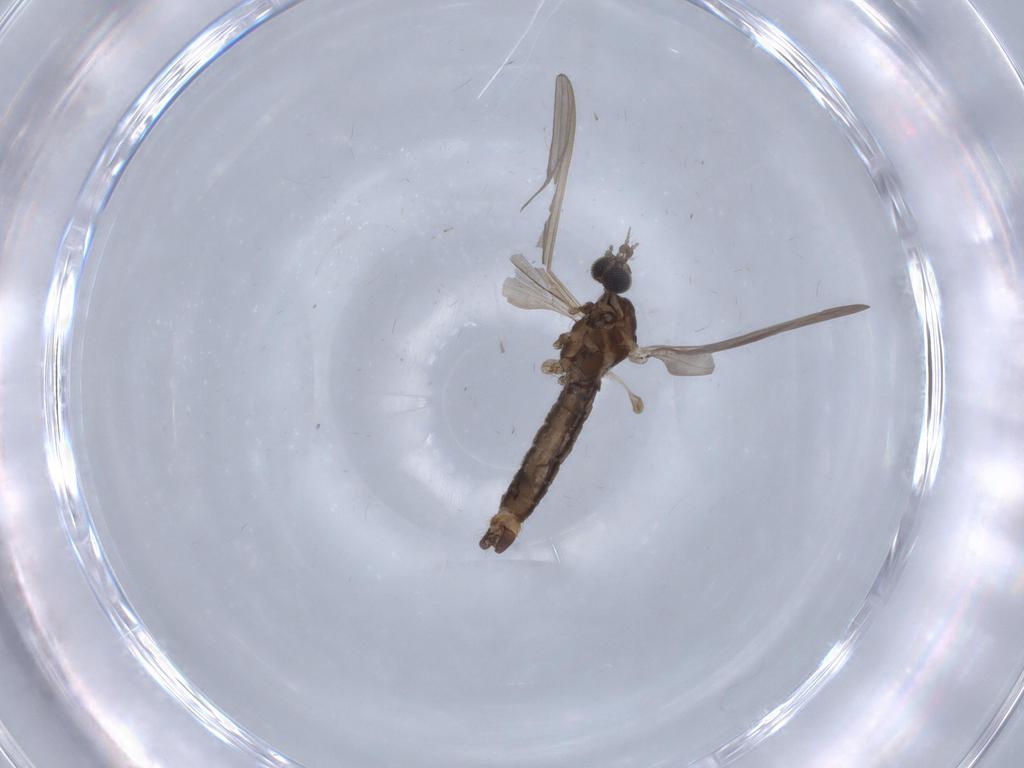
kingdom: Animalia
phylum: Arthropoda
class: Insecta
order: Diptera
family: Limoniidae
